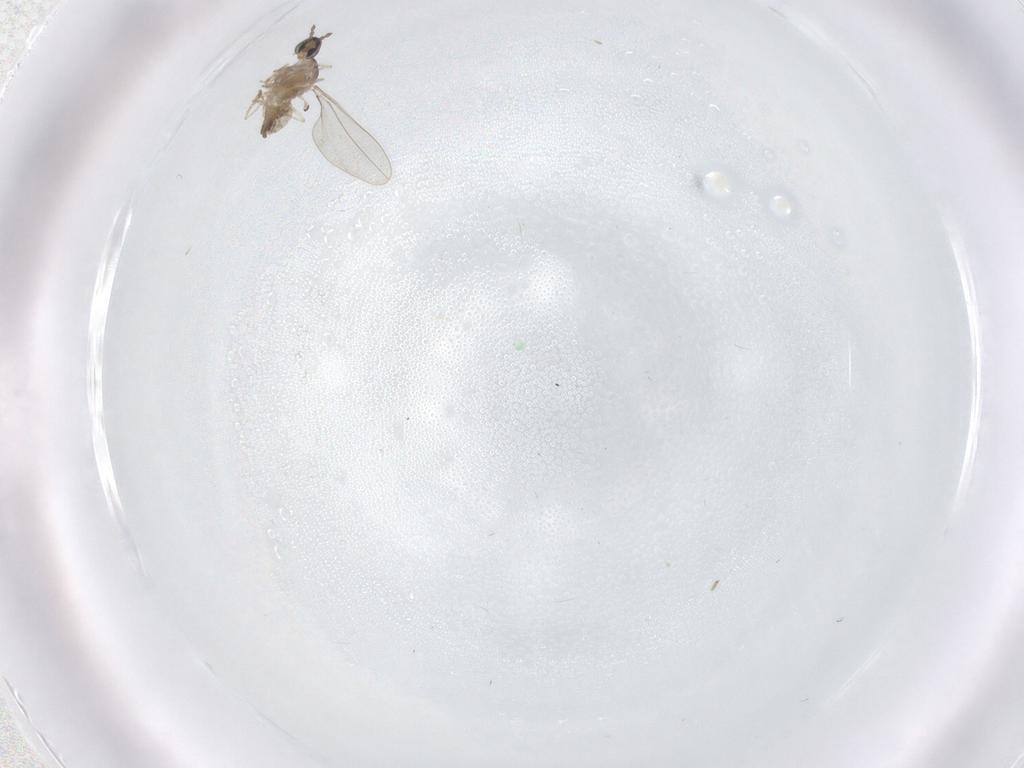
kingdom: Animalia
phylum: Arthropoda
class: Insecta
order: Diptera
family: Cecidomyiidae
